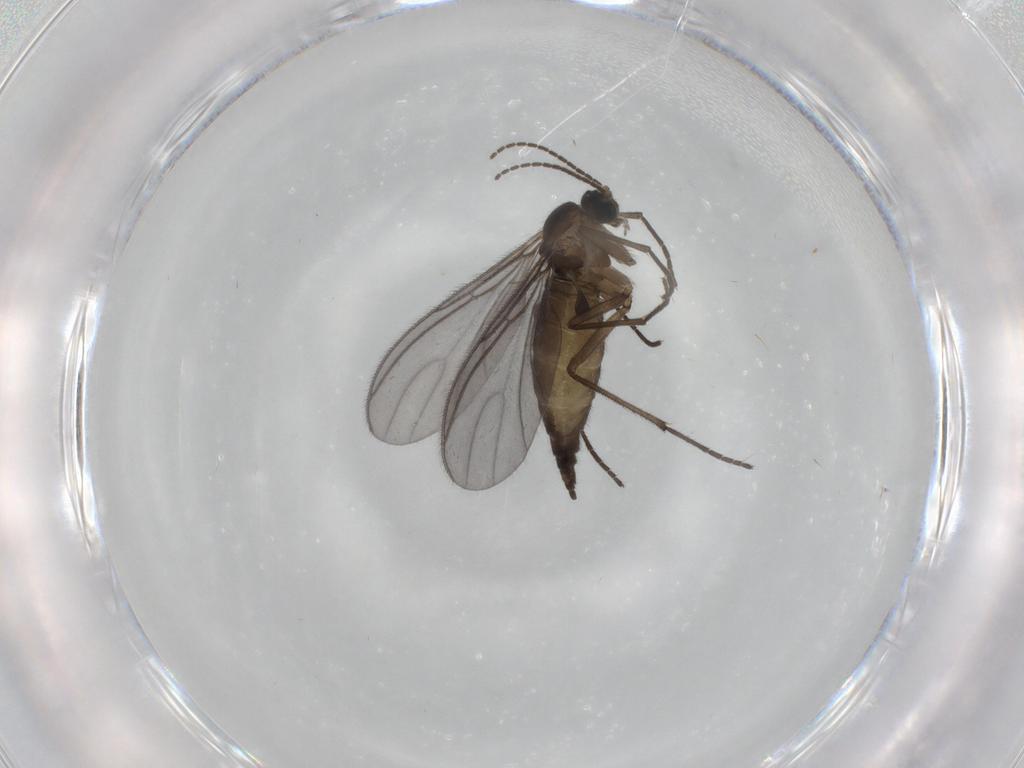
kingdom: Animalia
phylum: Arthropoda
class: Insecta
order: Diptera
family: Sciaridae
